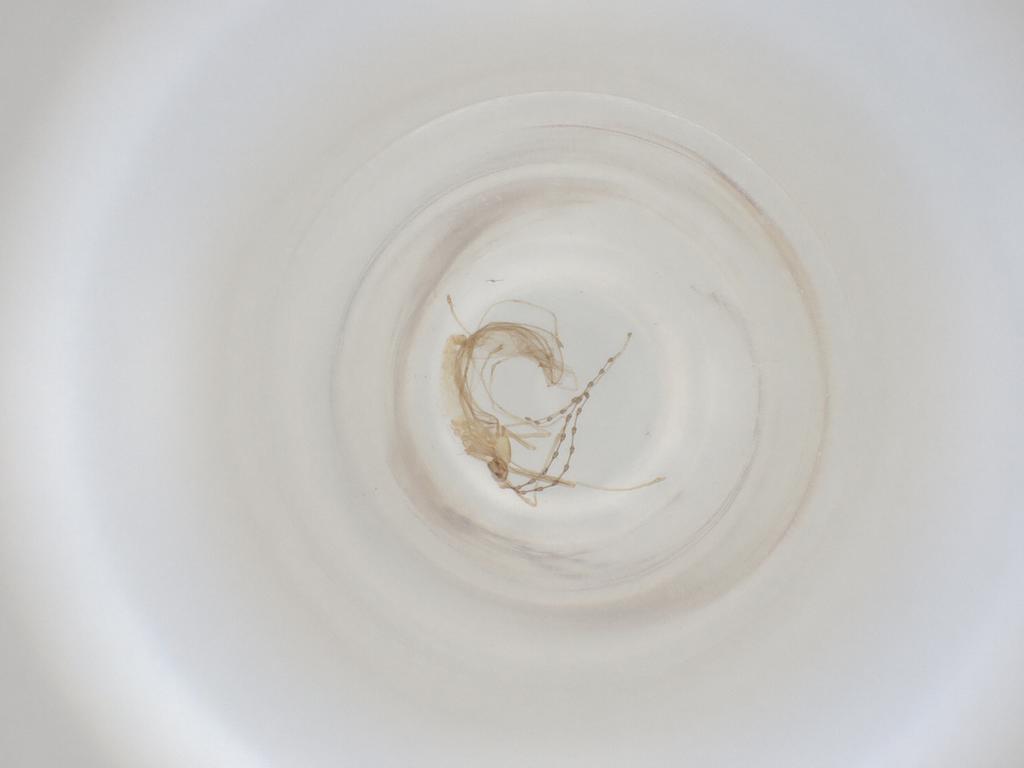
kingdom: Animalia
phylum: Arthropoda
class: Insecta
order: Diptera
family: Cecidomyiidae
